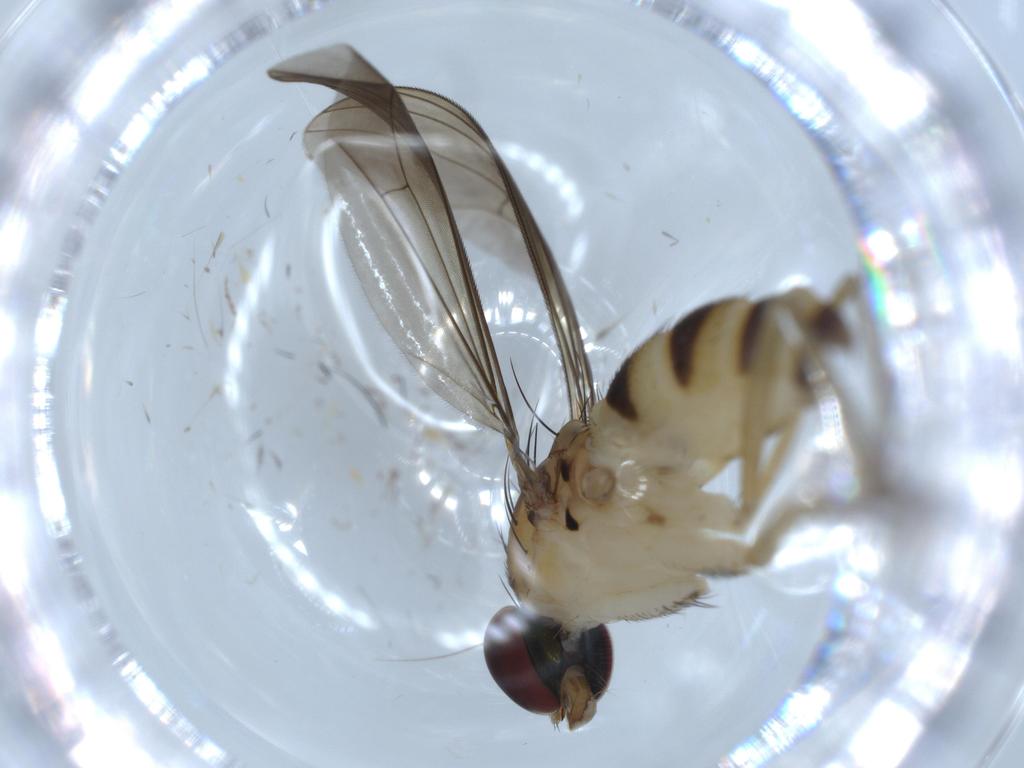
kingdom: Animalia
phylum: Arthropoda
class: Insecta
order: Diptera
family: Dolichopodidae
